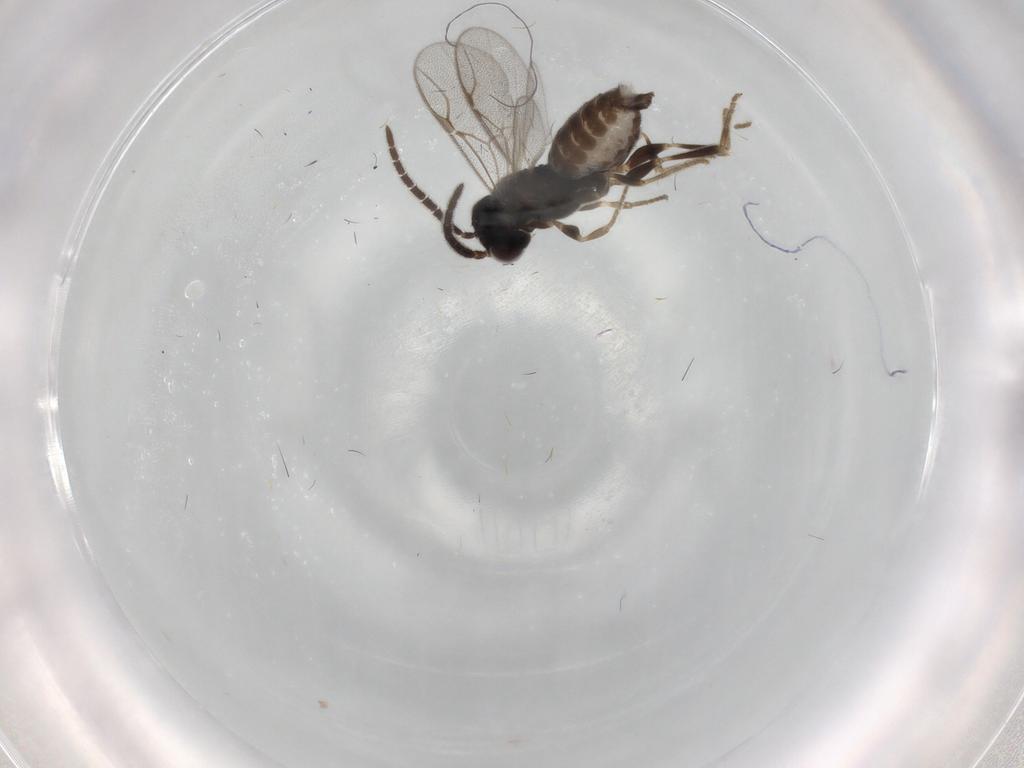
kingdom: Animalia
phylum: Arthropoda
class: Insecta
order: Hymenoptera
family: Dryinidae
